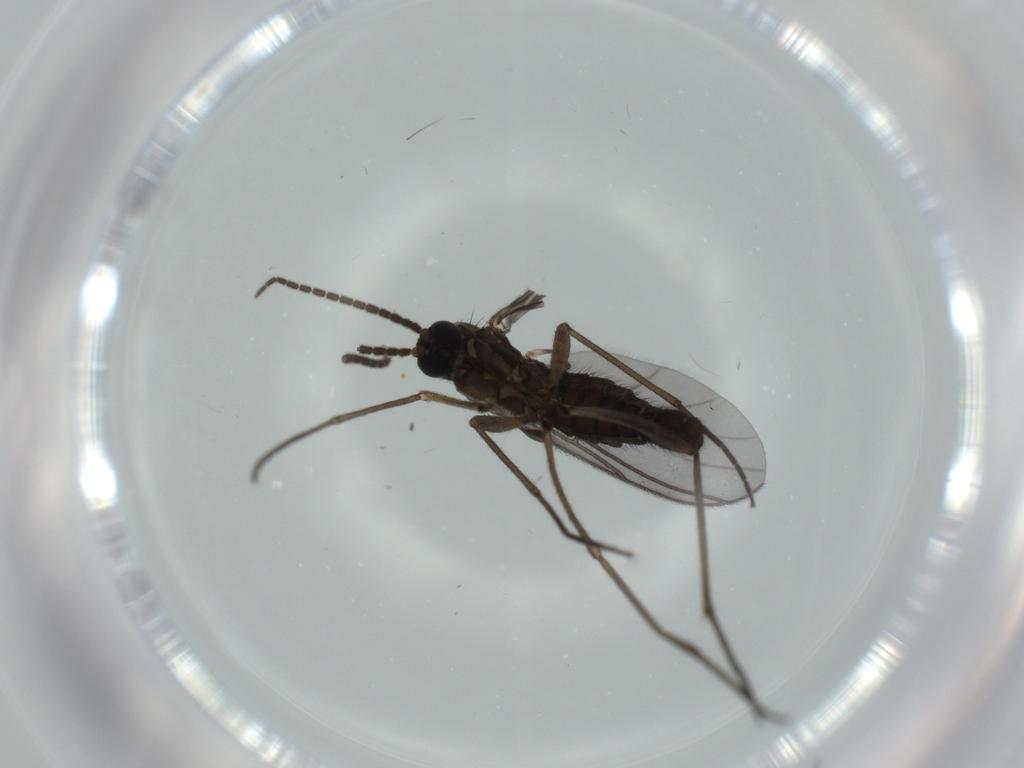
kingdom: Animalia
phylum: Arthropoda
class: Insecta
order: Diptera
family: Sciaridae
